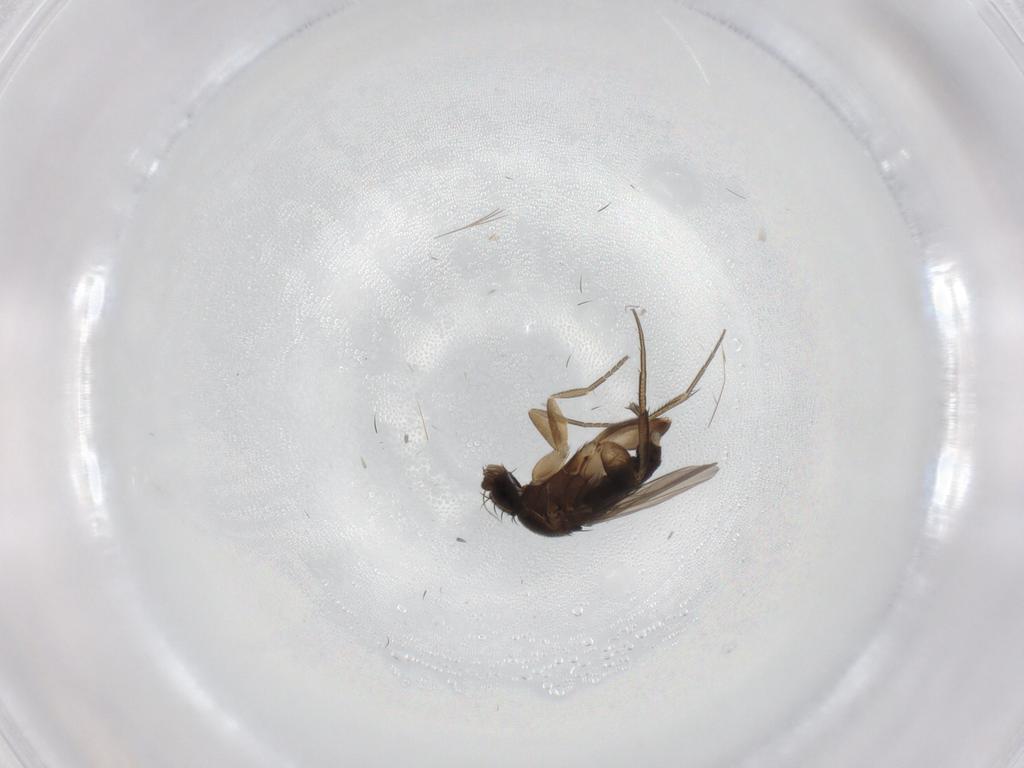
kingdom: Animalia
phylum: Arthropoda
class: Insecta
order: Diptera
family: Phoridae
